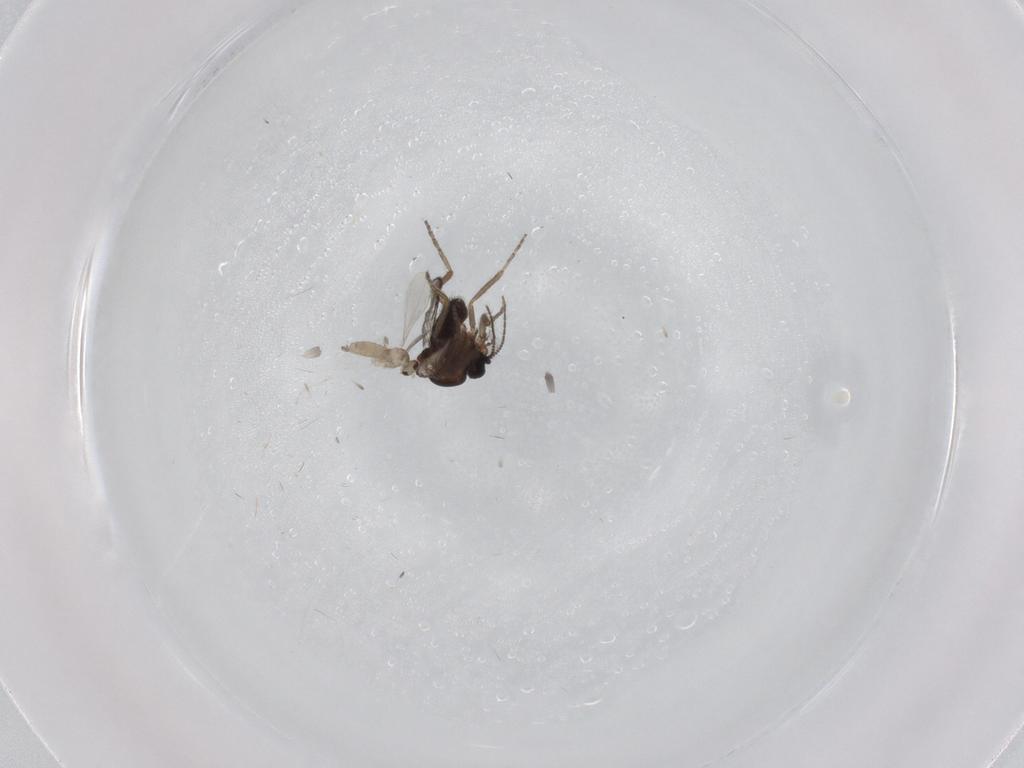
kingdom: Animalia
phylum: Arthropoda
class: Insecta
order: Diptera
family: Ceratopogonidae
